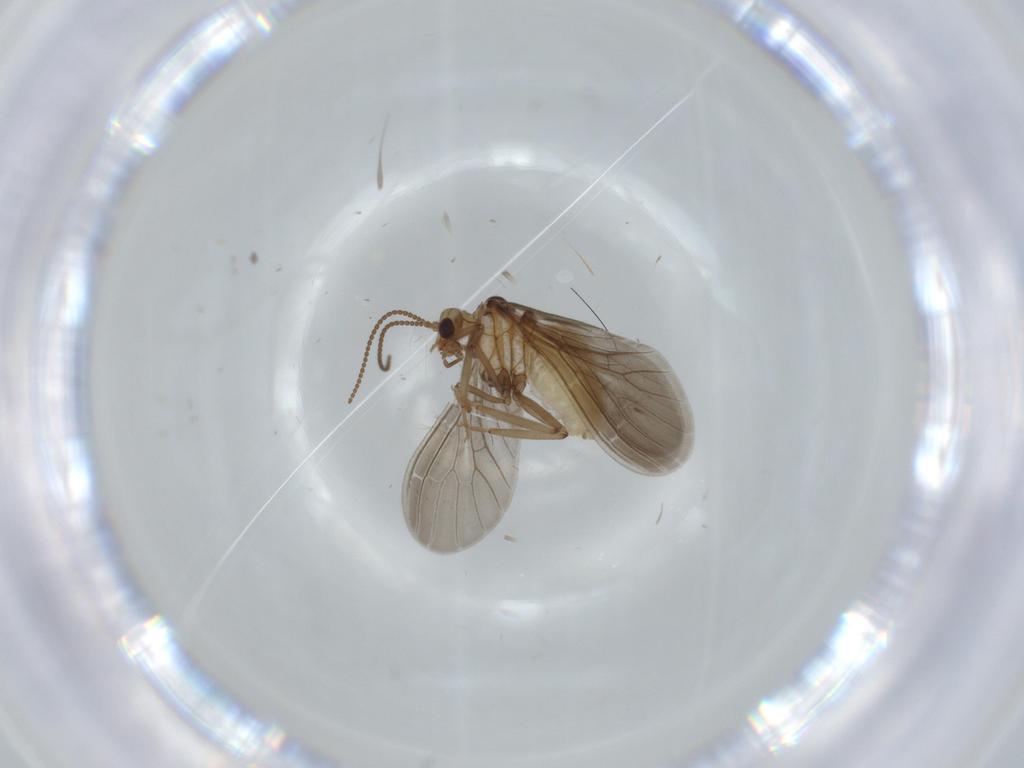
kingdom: Animalia
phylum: Arthropoda
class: Insecta
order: Neuroptera
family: Coniopterygidae
